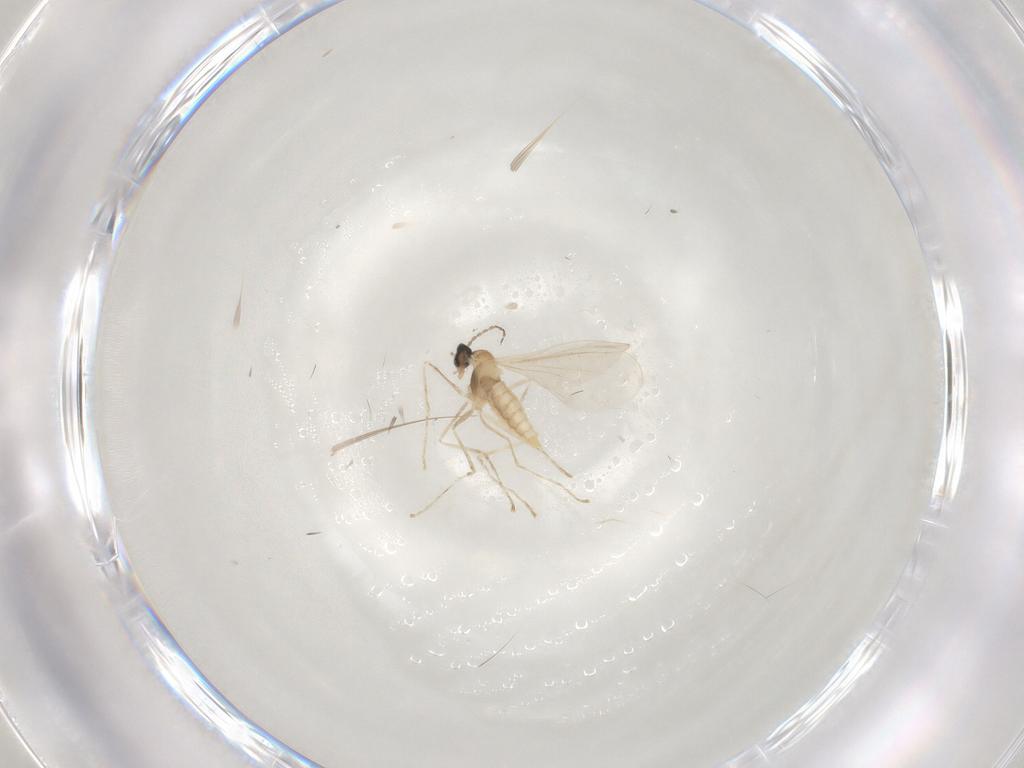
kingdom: Animalia
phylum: Arthropoda
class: Insecta
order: Diptera
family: Cecidomyiidae
